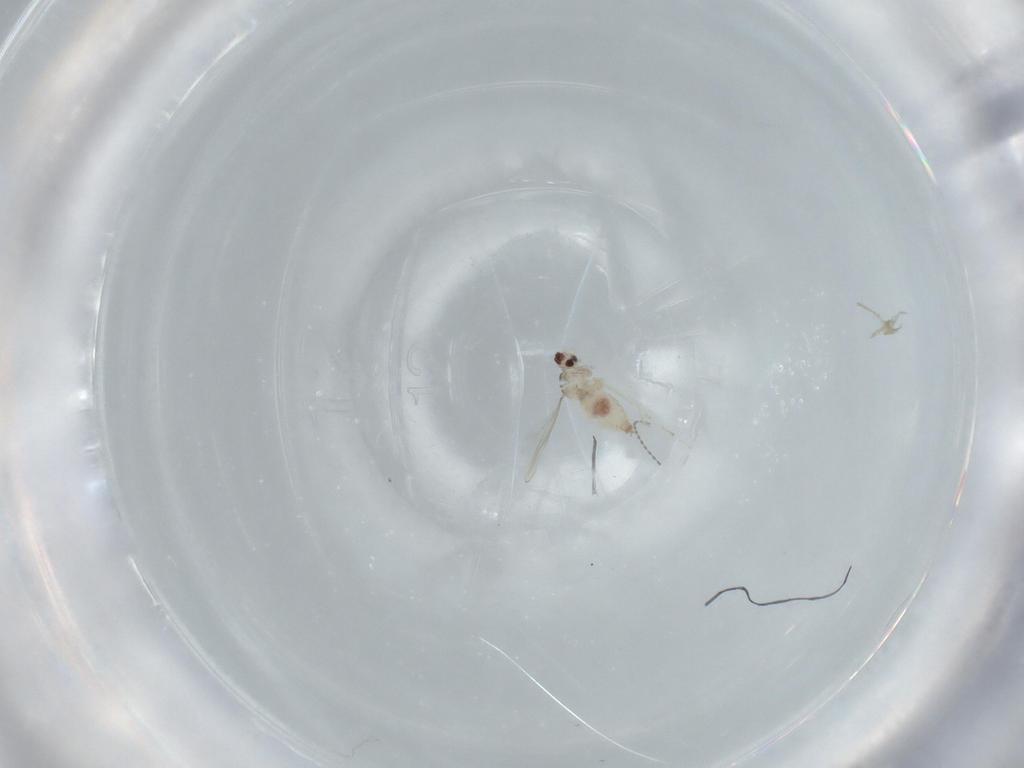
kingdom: Animalia
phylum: Arthropoda
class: Insecta
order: Diptera
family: Cecidomyiidae
